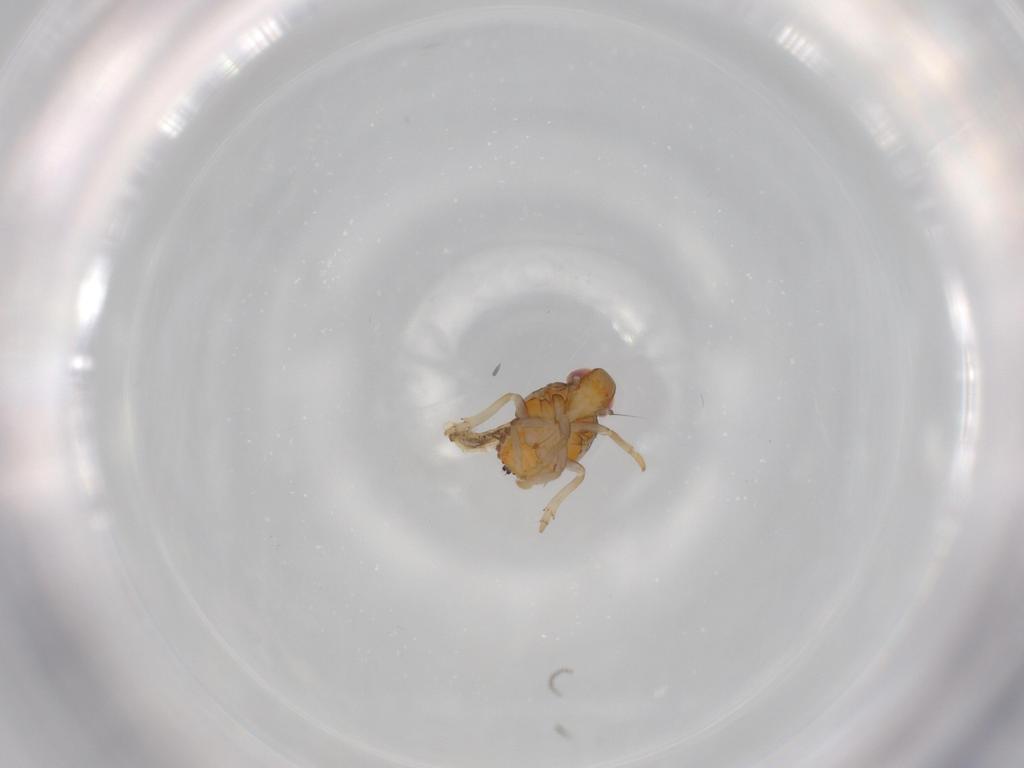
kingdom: Animalia
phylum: Arthropoda
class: Insecta
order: Hemiptera
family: Issidae
